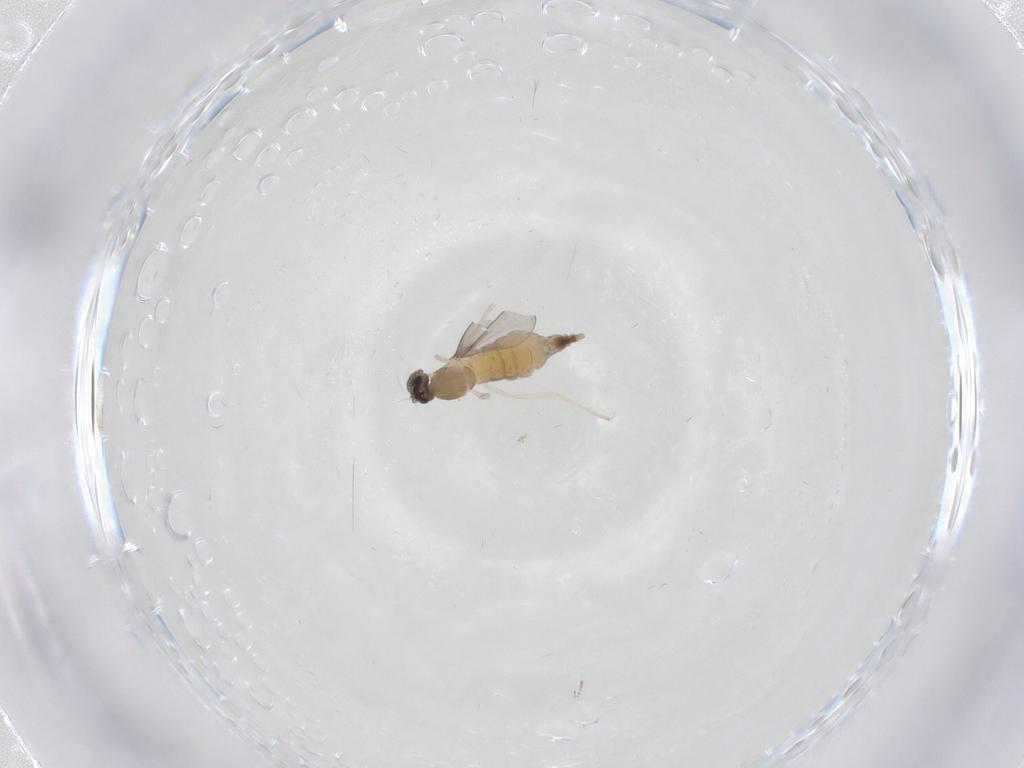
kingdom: Animalia
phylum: Arthropoda
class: Insecta
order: Diptera
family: Cecidomyiidae
